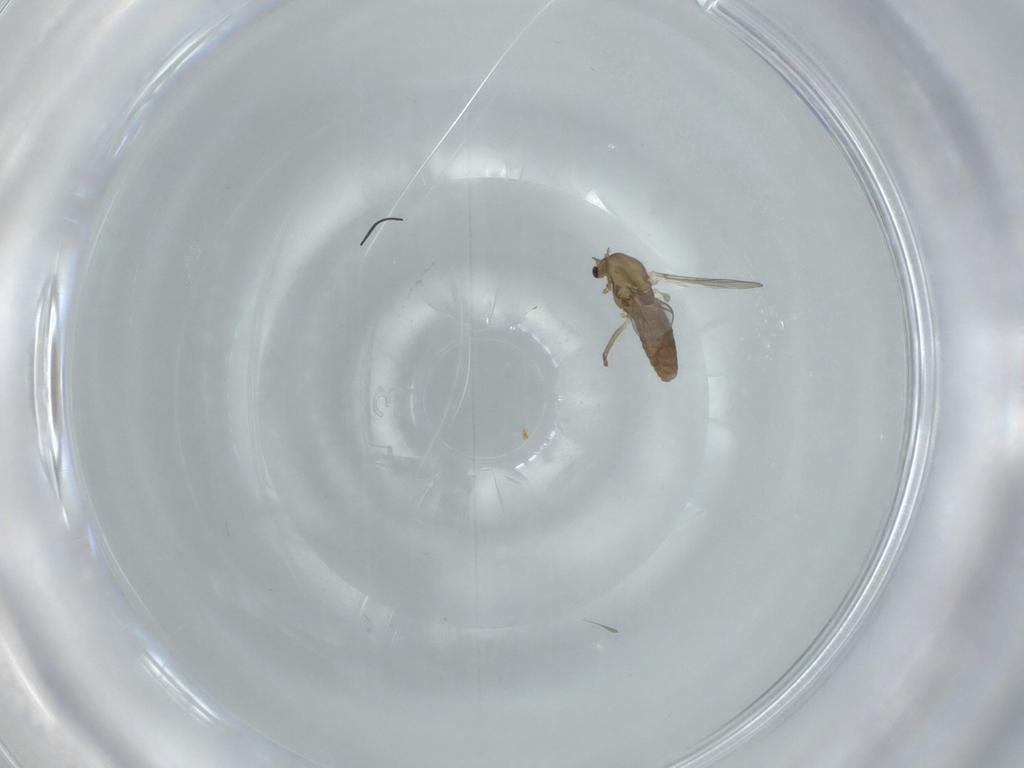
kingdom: Animalia
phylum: Arthropoda
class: Insecta
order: Diptera
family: Chironomidae
